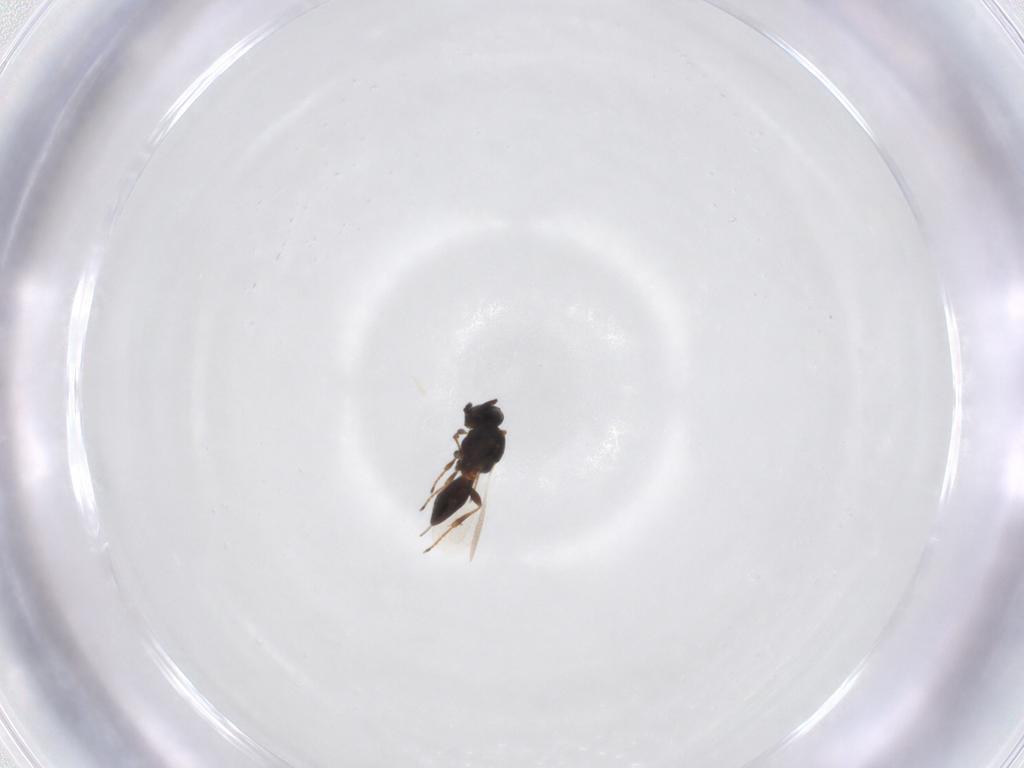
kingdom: Animalia
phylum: Arthropoda
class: Insecta
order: Hymenoptera
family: Platygastridae
